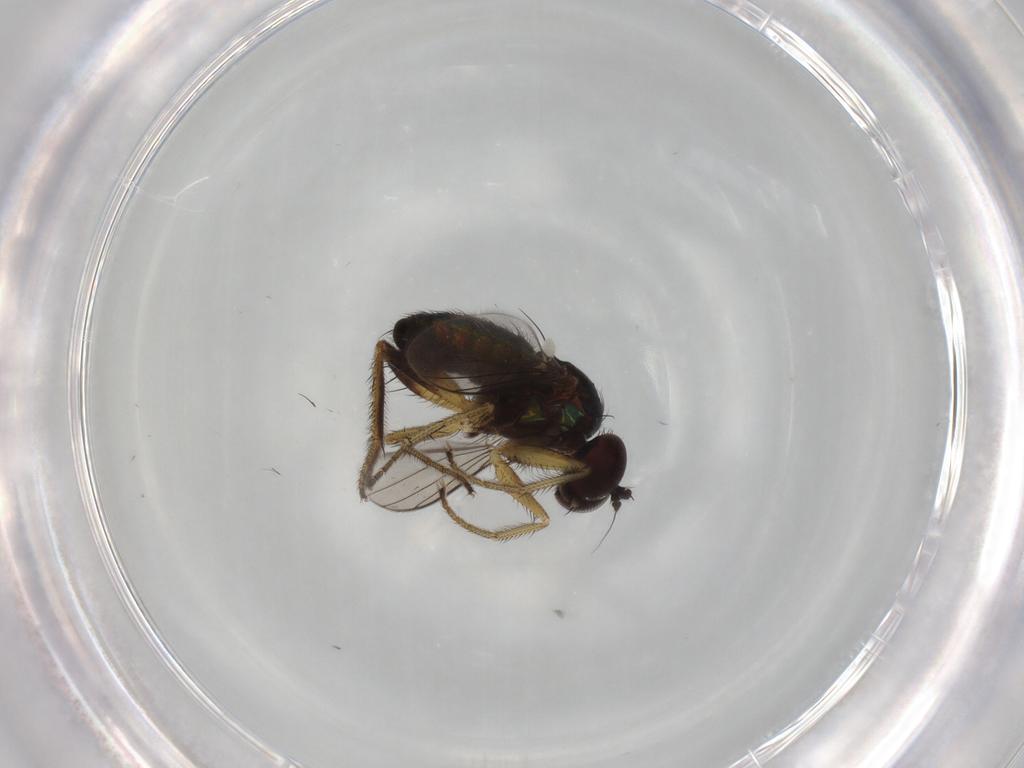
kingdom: Animalia
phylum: Arthropoda
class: Insecta
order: Diptera
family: Dolichopodidae
